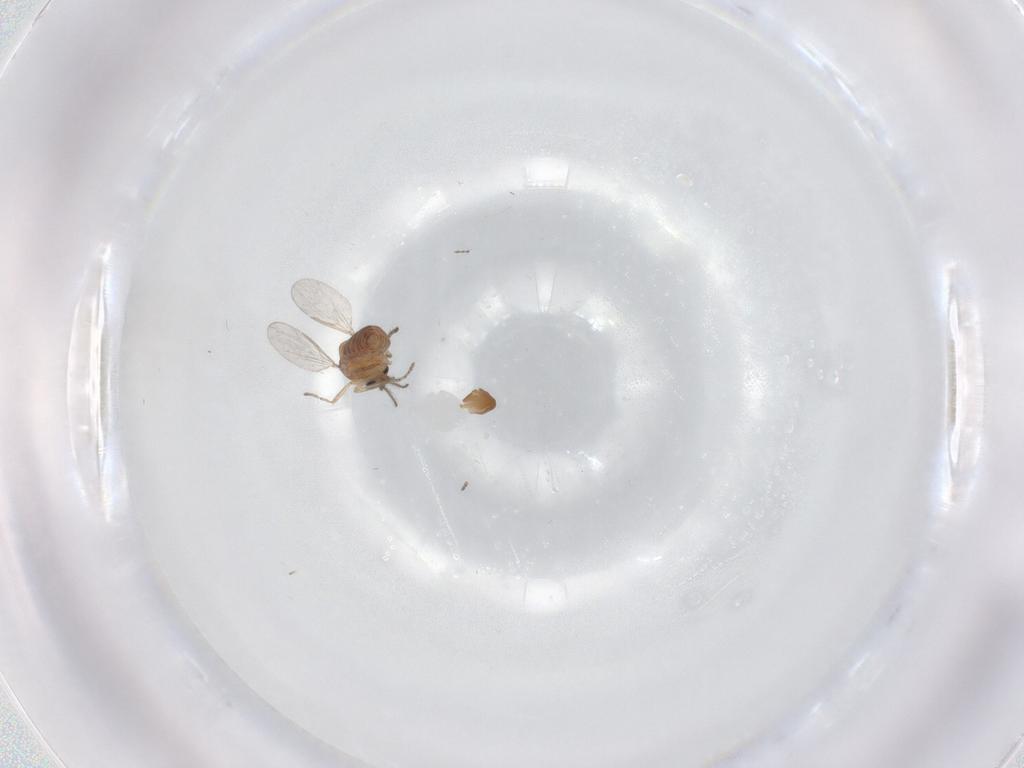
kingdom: Animalia
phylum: Arthropoda
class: Insecta
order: Diptera
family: Ceratopogonidae
